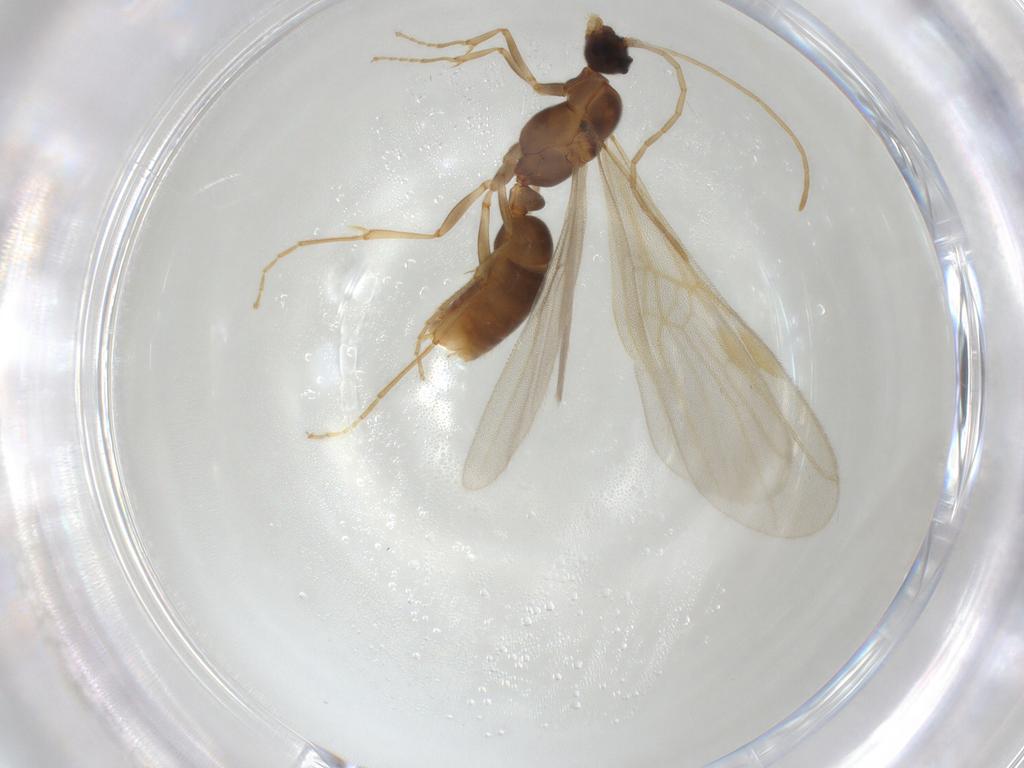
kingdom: Animalia
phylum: Arthropoda
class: Insecta
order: Hymenoptera
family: Formicidae
